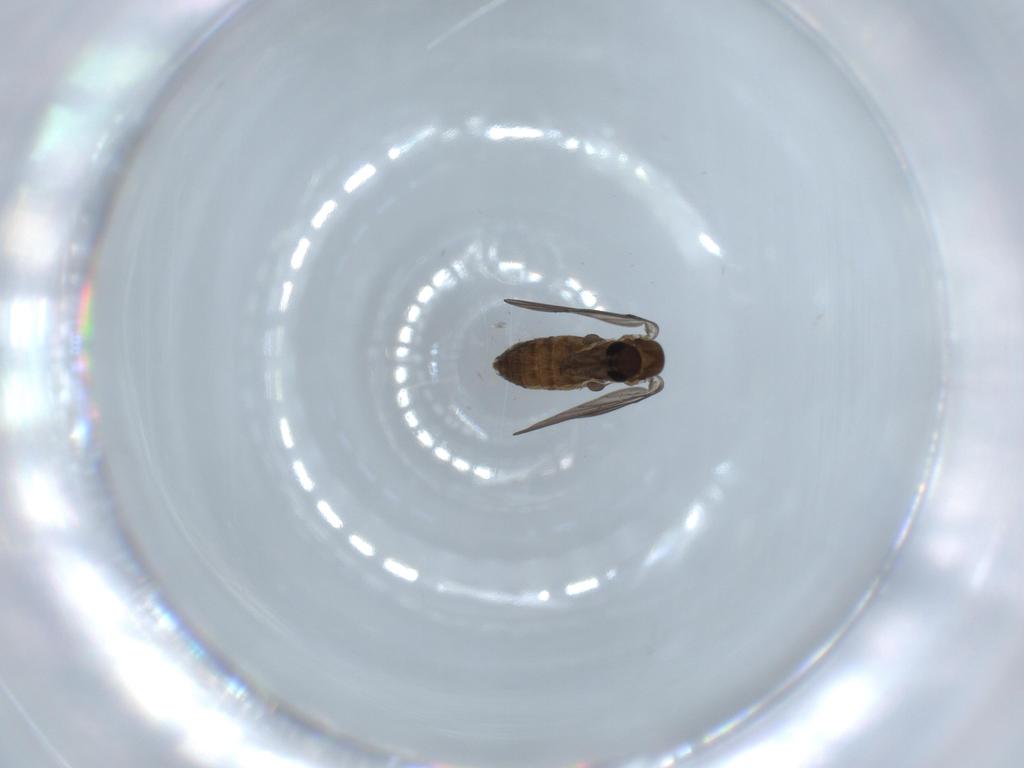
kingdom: Animalia
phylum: Arthropoda
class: Insecta
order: Diptera
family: Psychodidae
